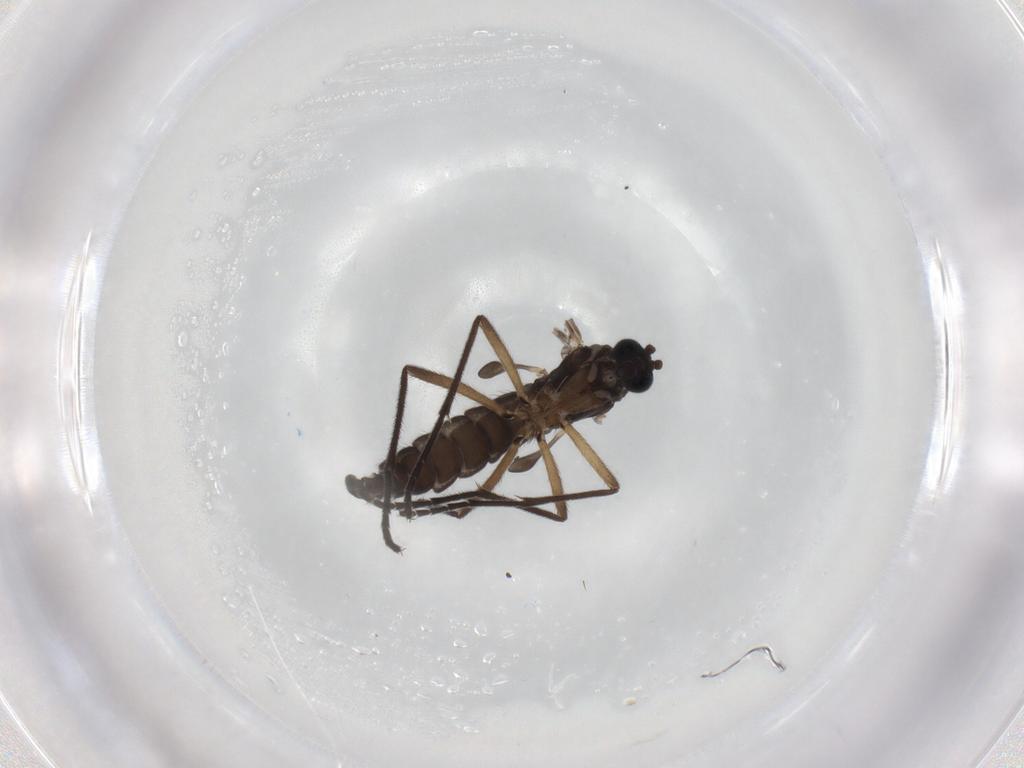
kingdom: Animalia
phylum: Arthropoda
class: Insecta
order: Diptera
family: Sciaridae
